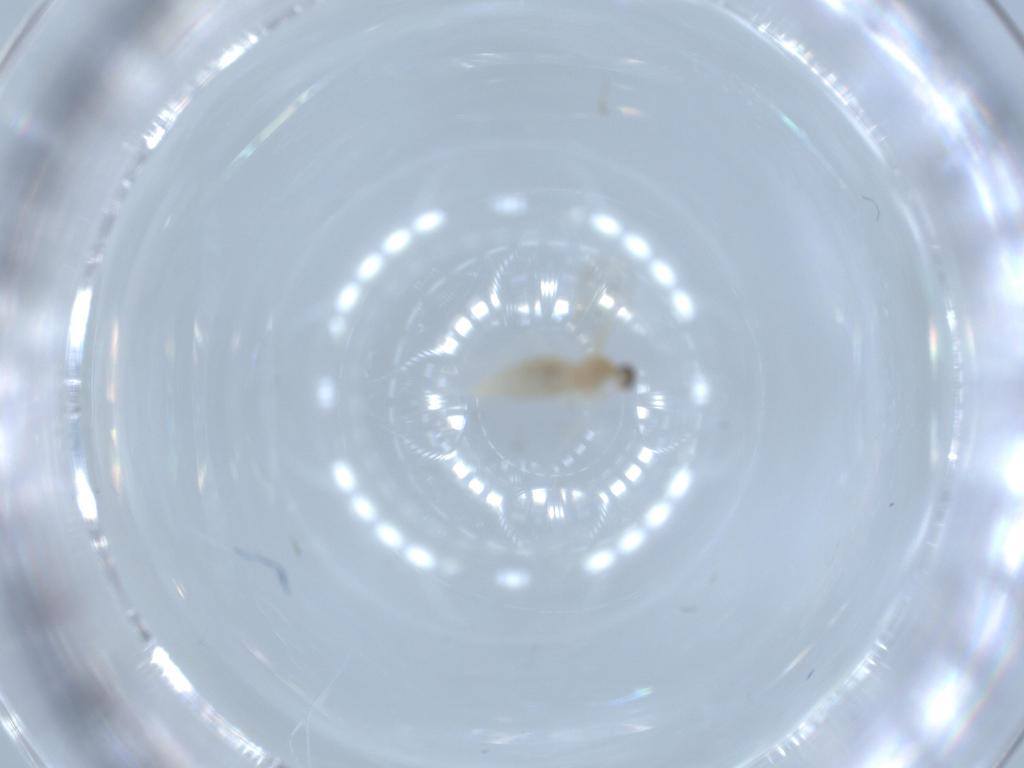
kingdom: Animalia
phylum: Arthropoda
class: Insecta
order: Diptera
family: Cecidomyiidae
